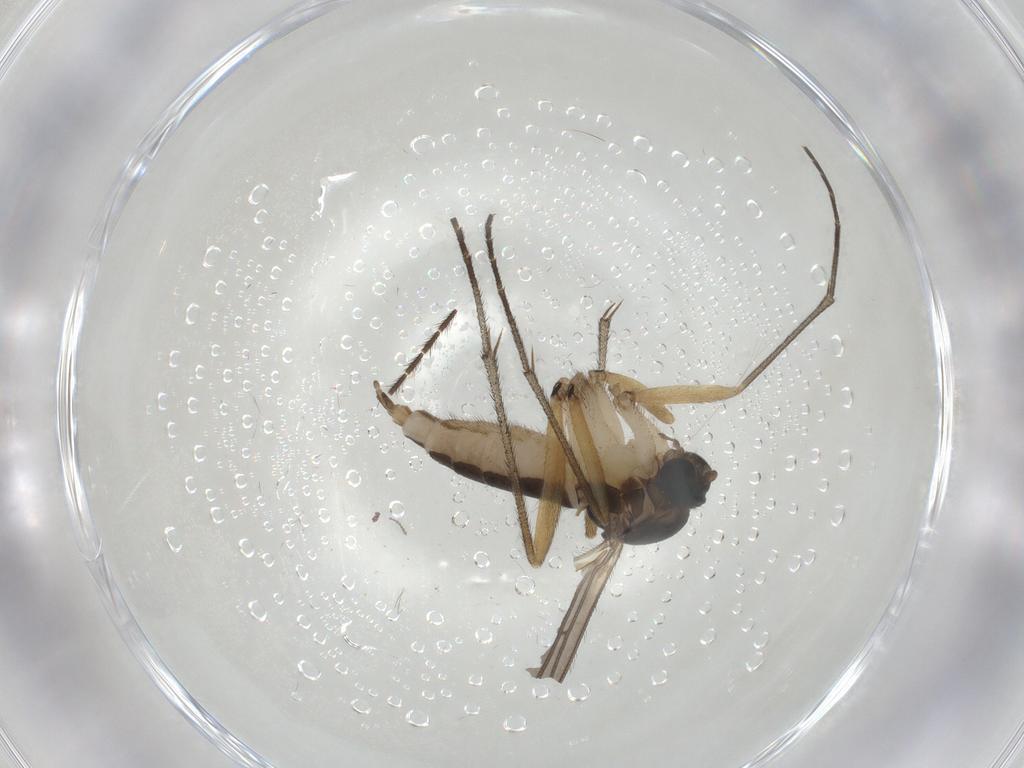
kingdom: Animalia
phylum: Arthropoda
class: Insecta
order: Diptera
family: Sciaridae
